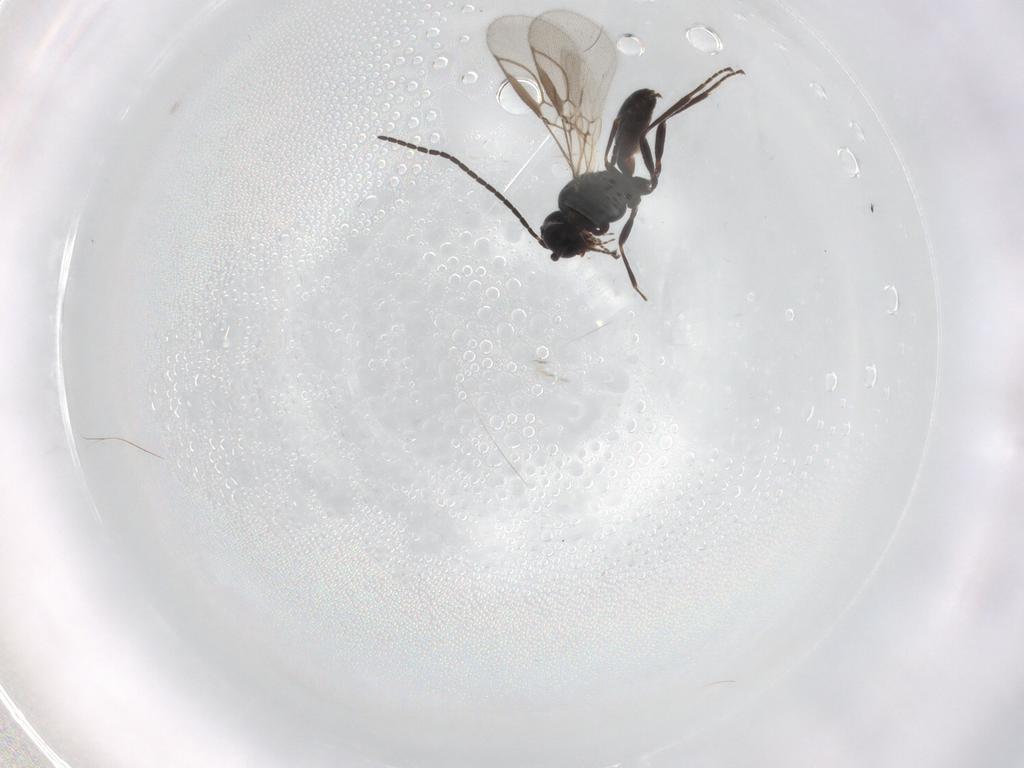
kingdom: Animalia
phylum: Arthropoda
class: Insecta
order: Hymenoptera
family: Braconidae
